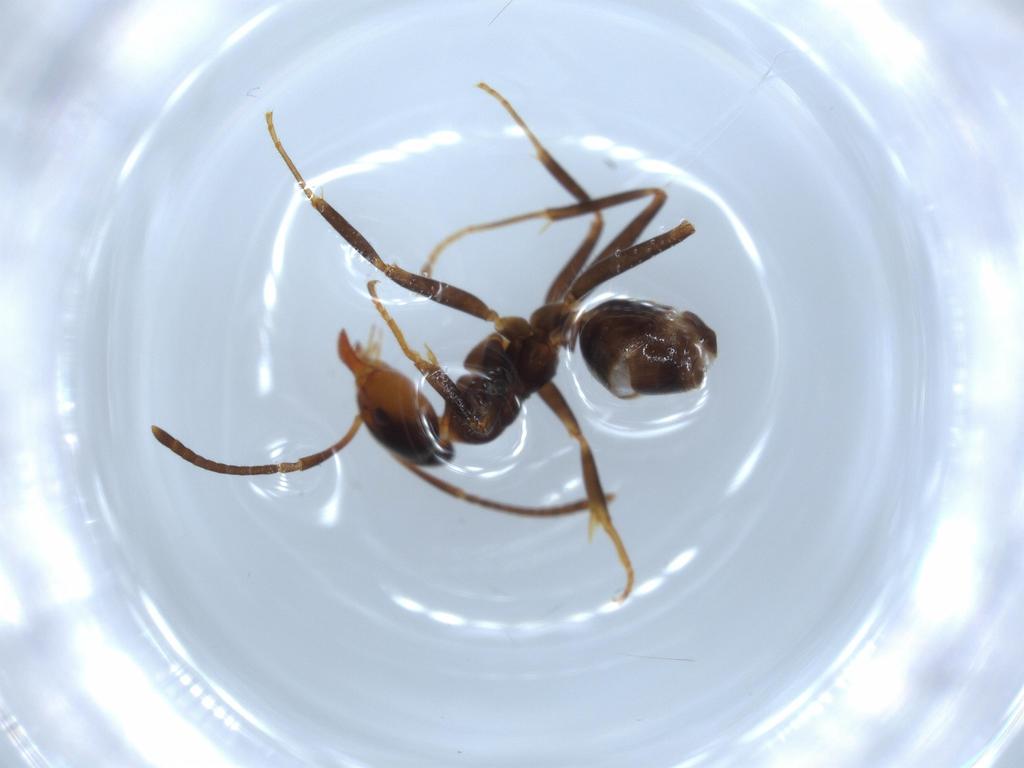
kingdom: Animalia
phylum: Arthropoda
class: Insecta
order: Hymenoptera
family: Formicidae
